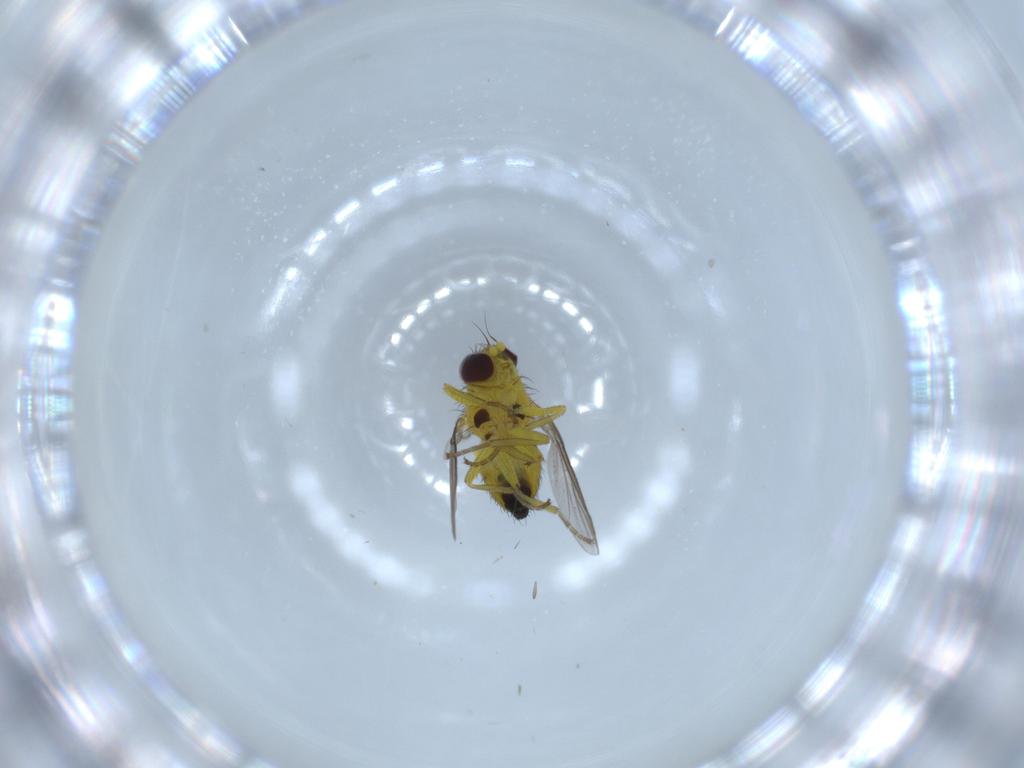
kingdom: Animalia
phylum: Arthropoda
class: Insecta
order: Diptera
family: Agromyzidae
